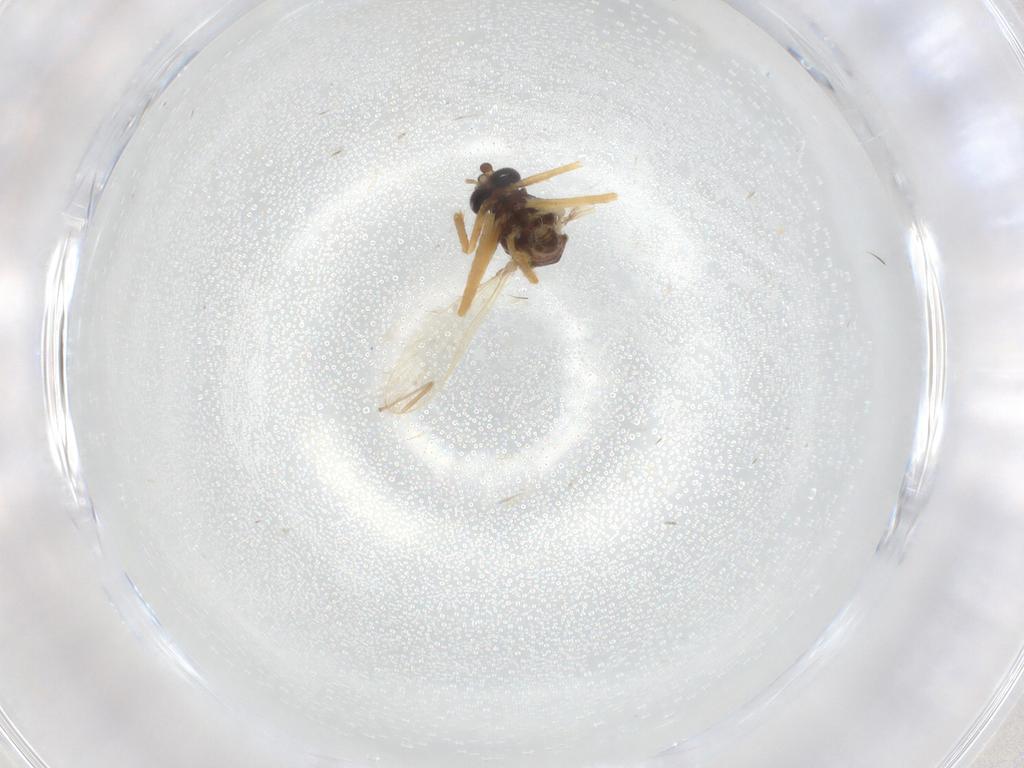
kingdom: Animalia
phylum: Arthropoda
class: Insecta
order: Diptera
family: Chironomidae
